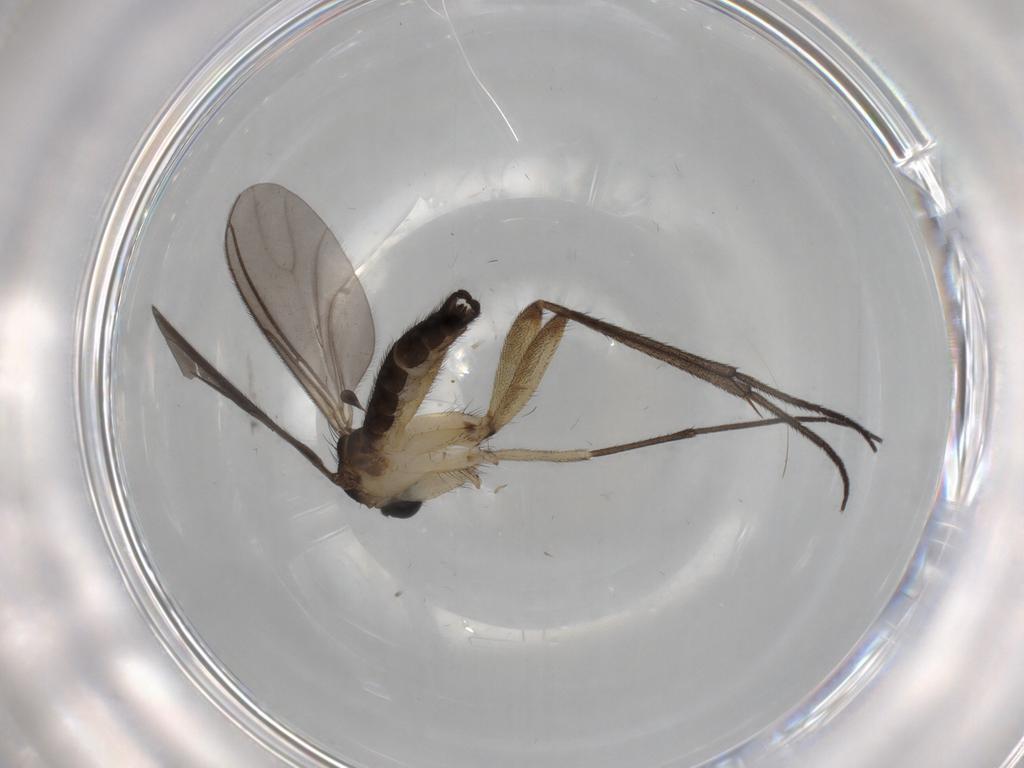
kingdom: Animalia
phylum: Arthropoda
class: Insecta
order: Diptera
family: Sciaridae
